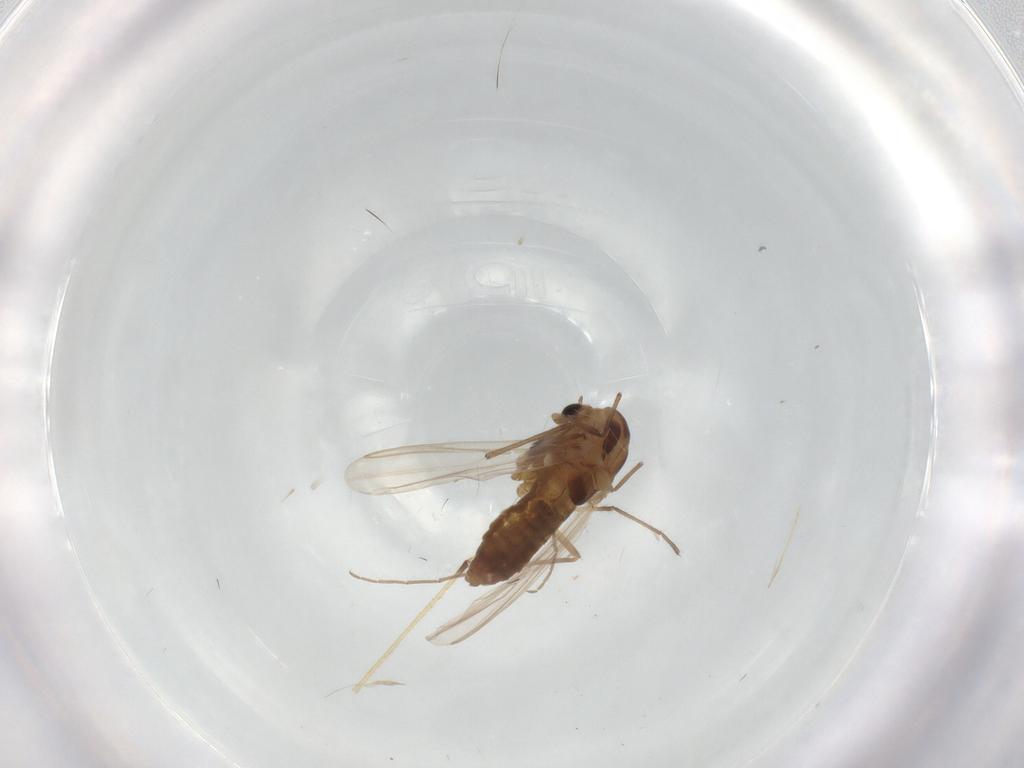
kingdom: Animalia
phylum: Arthropoda
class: Insecta
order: Diptera
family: Chironomidae
